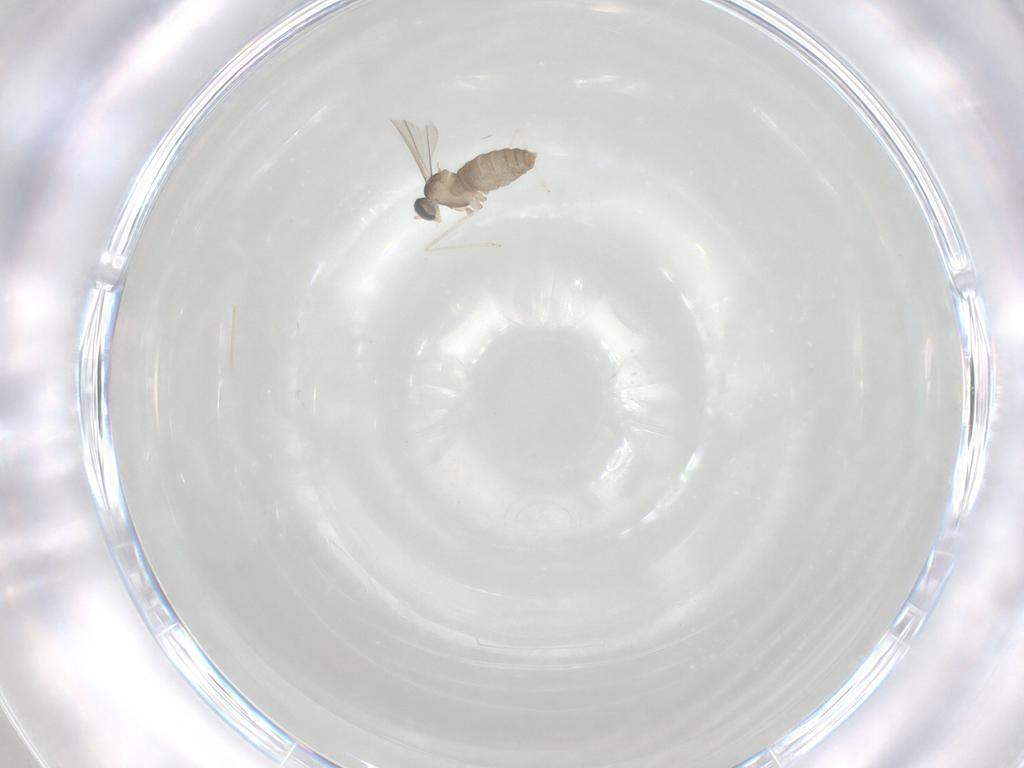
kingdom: Animalia
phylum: Arthropoda
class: Insecta
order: Diptera
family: Cecidomyiidae
